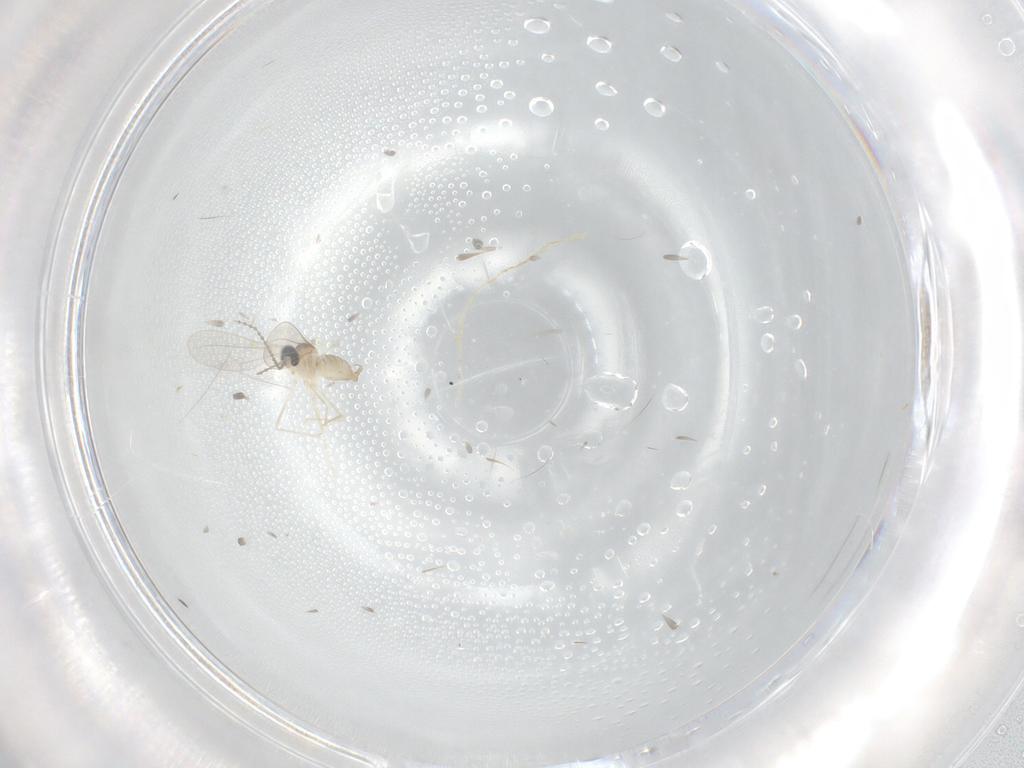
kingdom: Animalia
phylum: Arthropoda
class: Insecta
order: Diptera
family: Cecidomyiidae
